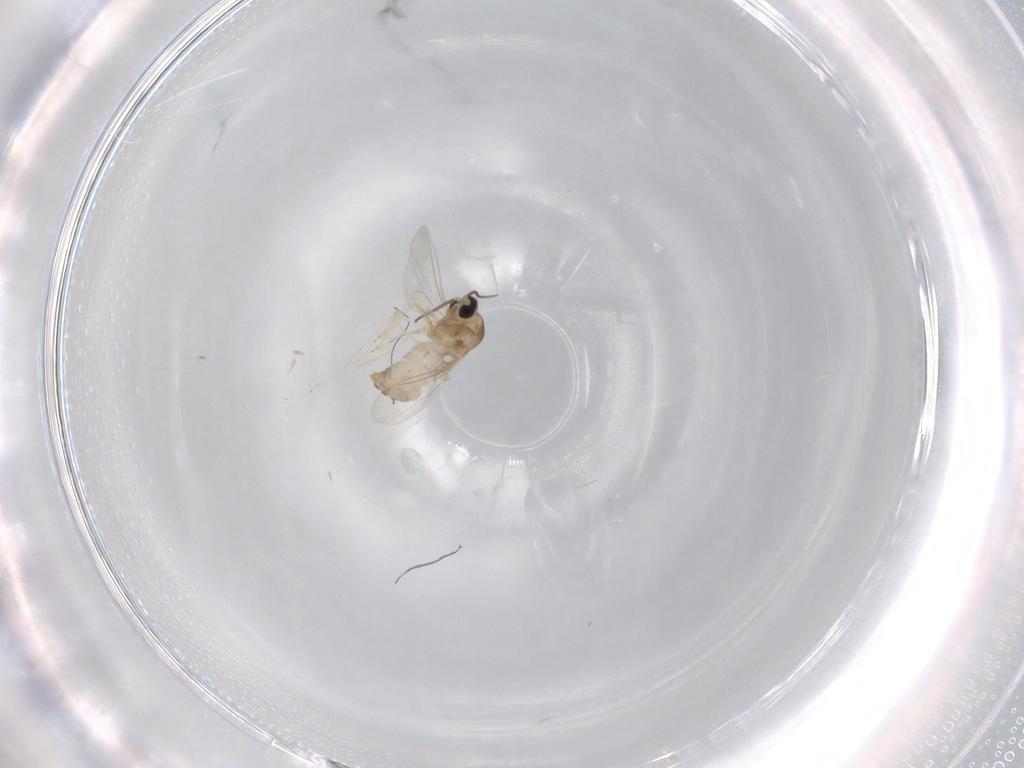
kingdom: Animalia
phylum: Arthropoda
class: Insecta
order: Diptera
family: Cecidomyiidae
